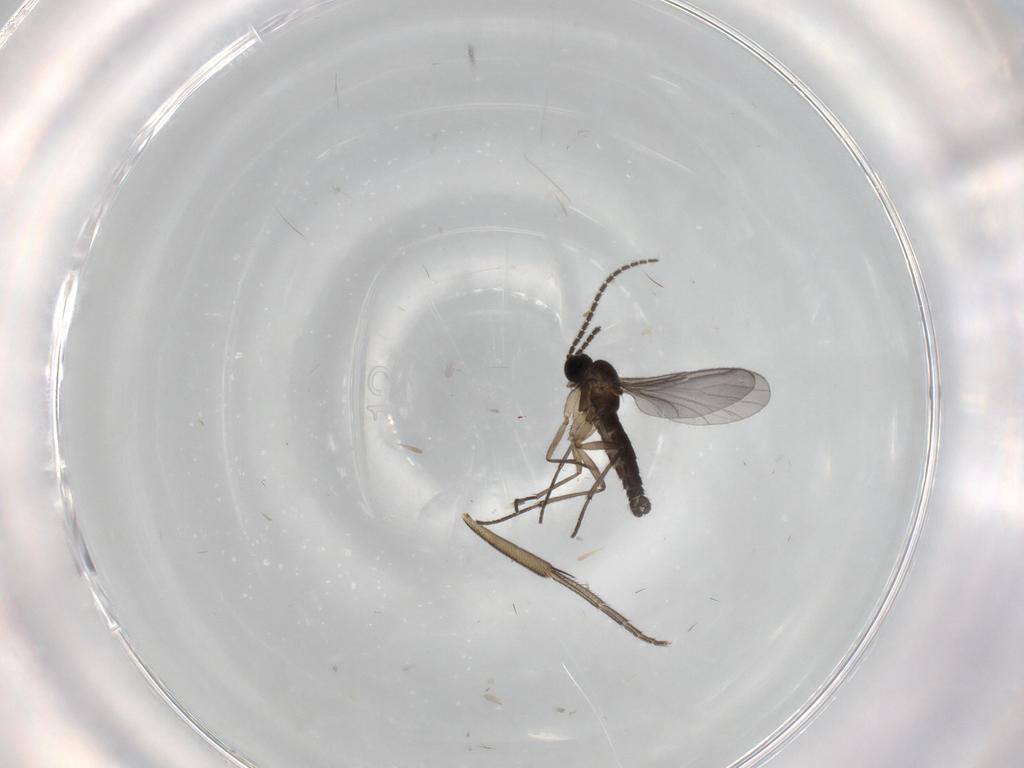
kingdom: Animalia
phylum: Arthropoda
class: Insecta
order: Diptera
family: Sciaridae
